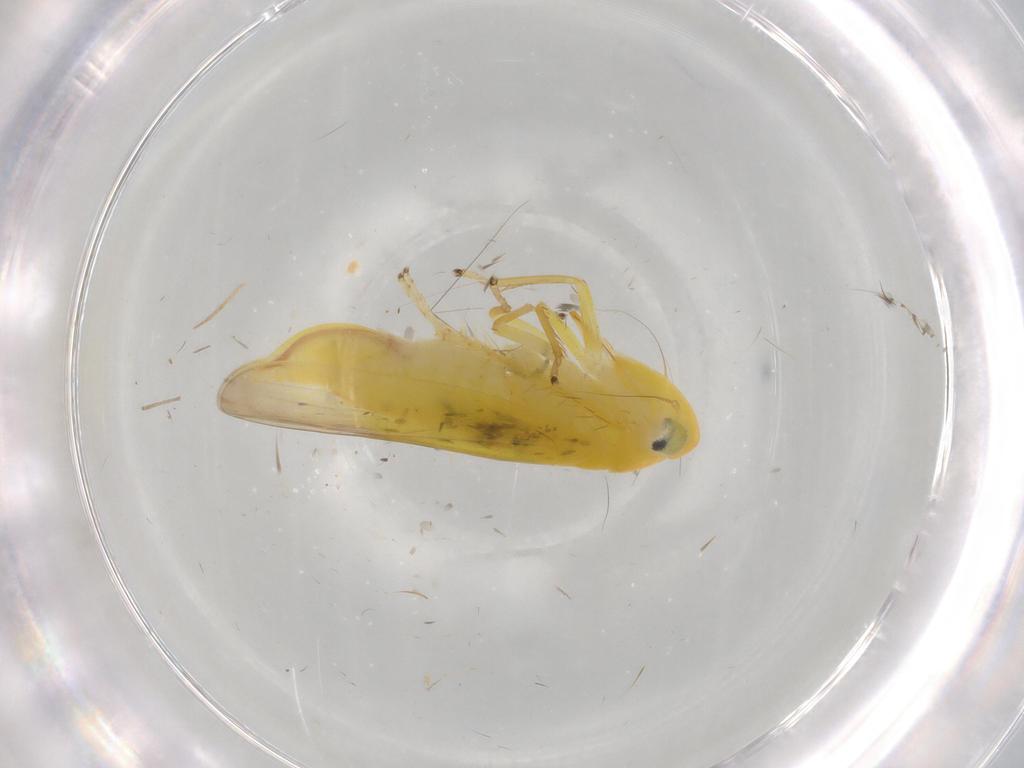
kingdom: Animalia
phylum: Arthropoda
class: Insecta
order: Hemiptera
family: Cicadellidae
